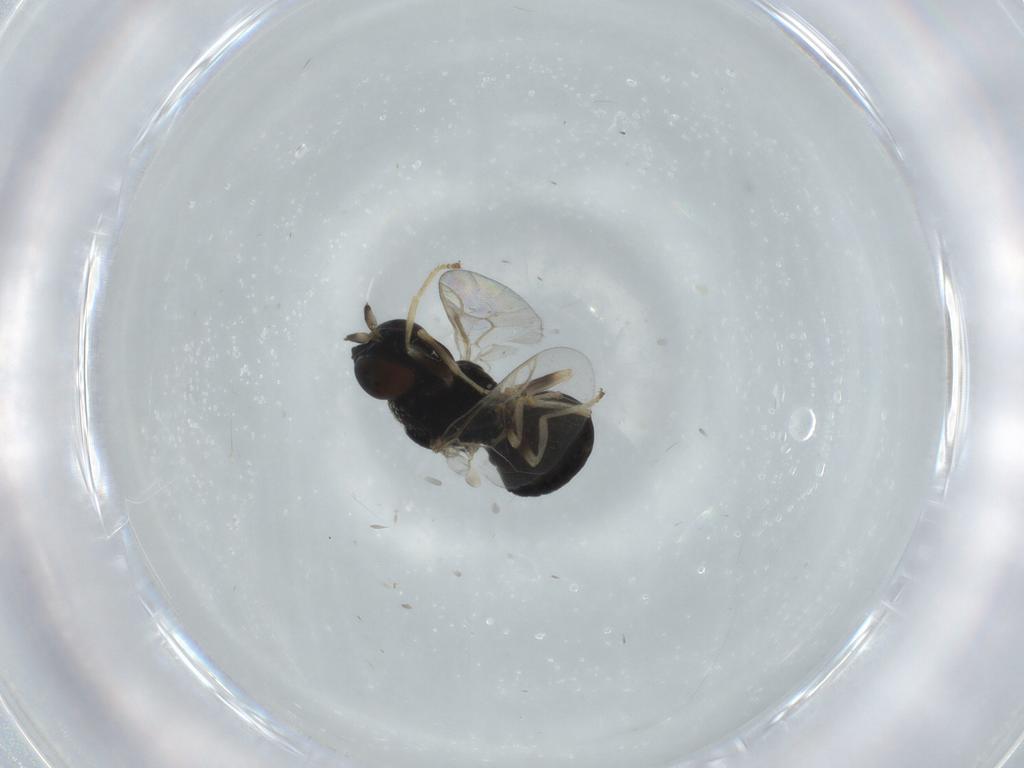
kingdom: Animalia
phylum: Arthropoda
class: Insecta
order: Diptera
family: Stratiomyidae
